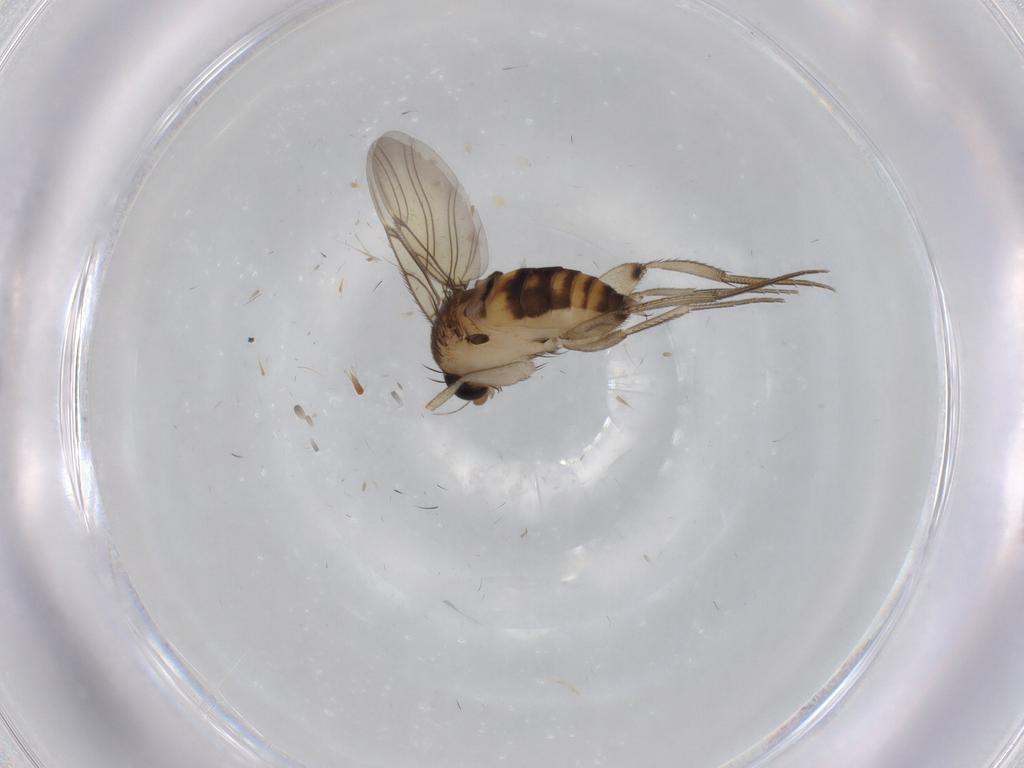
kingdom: Animalia
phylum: Arthropoda
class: Insecta
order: Diptera
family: Phoridae
